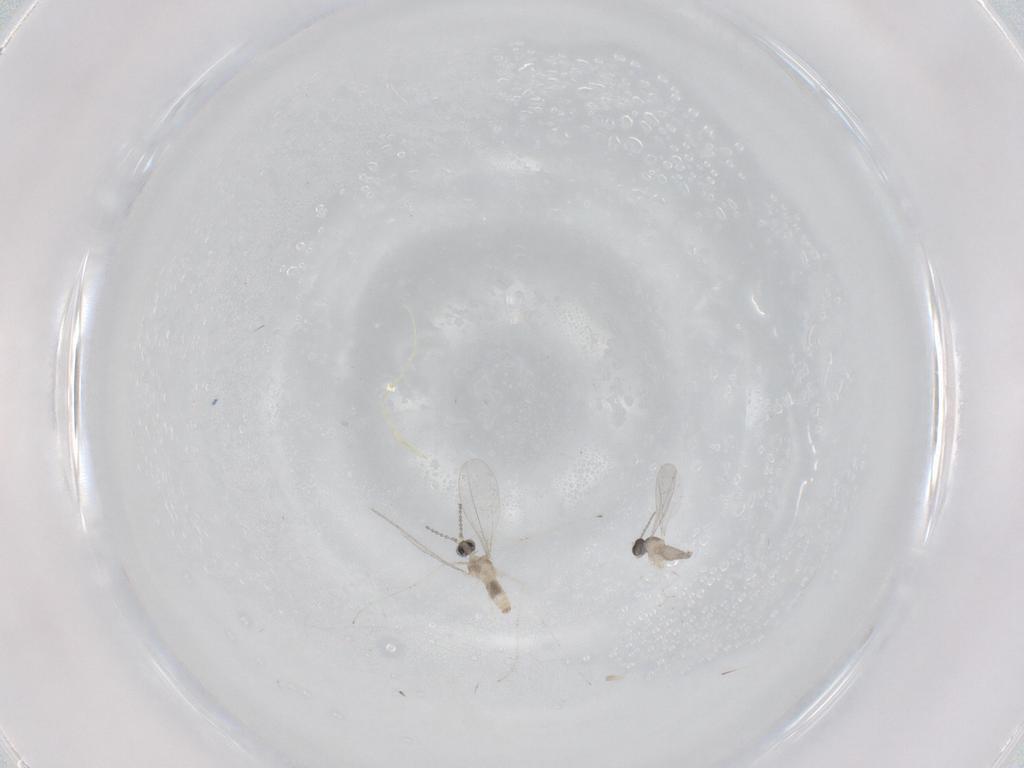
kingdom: Animalia
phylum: Arthropoda
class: Insecta
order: Diptera
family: Cecidomyiidae
